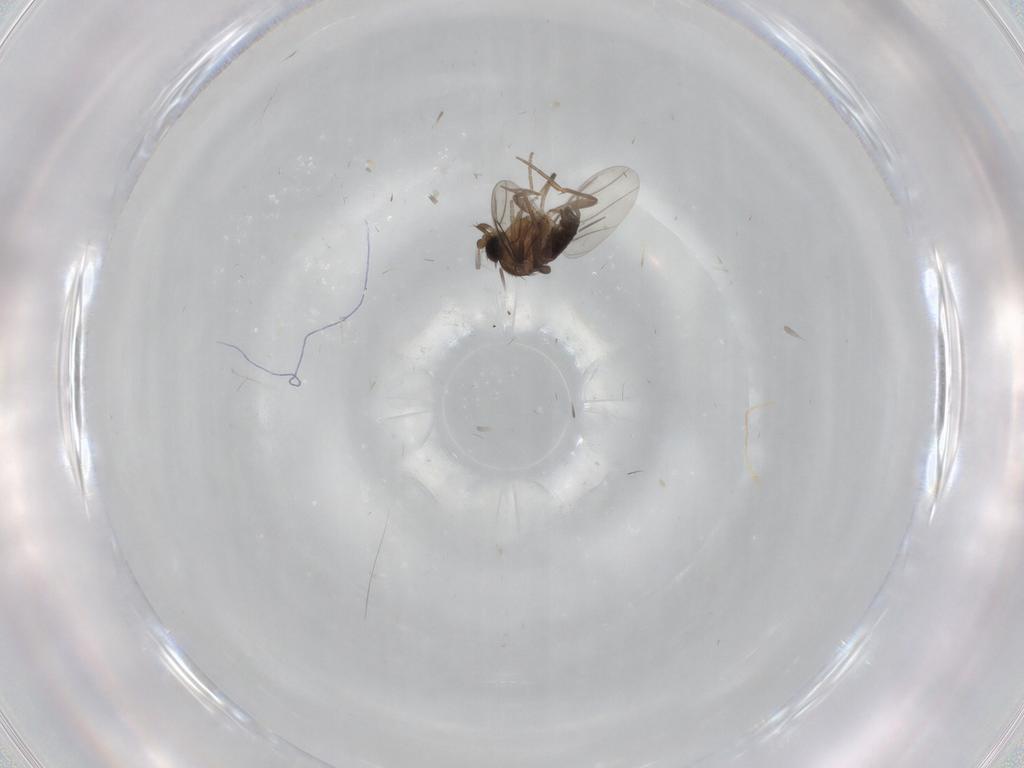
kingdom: Animalia
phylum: Arthropoda
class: Insecta
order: Diptera
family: Phoridae
